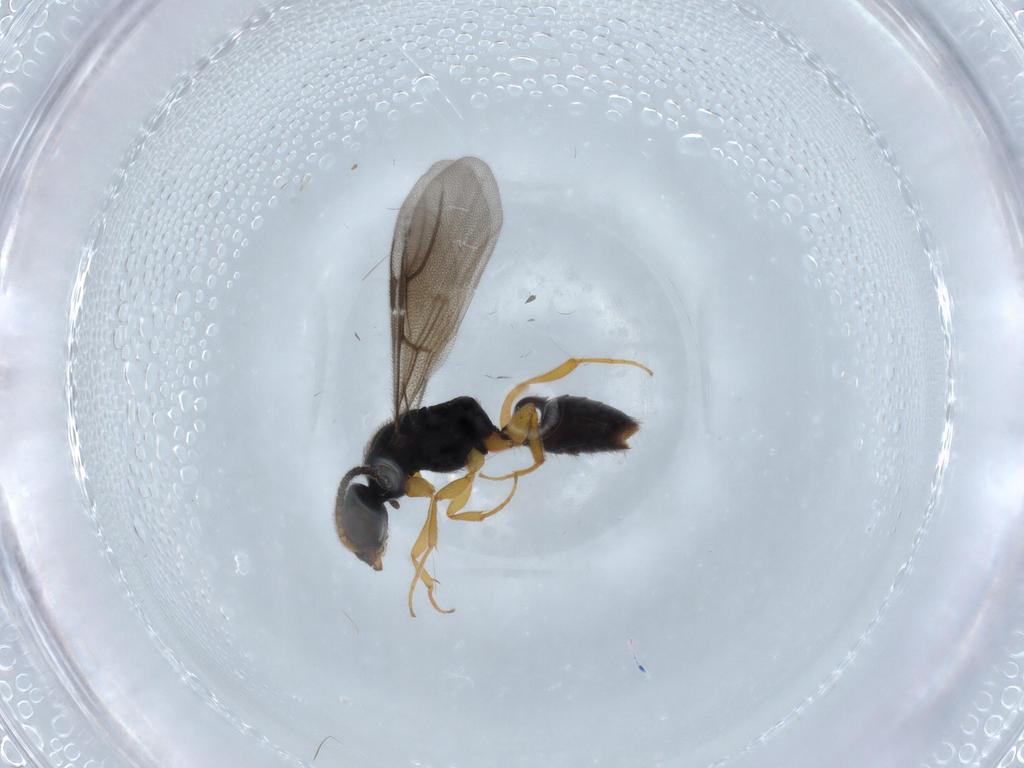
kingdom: Animalia
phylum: Arthropoda
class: Insecta
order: Hymenoptera
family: Bethylidae
